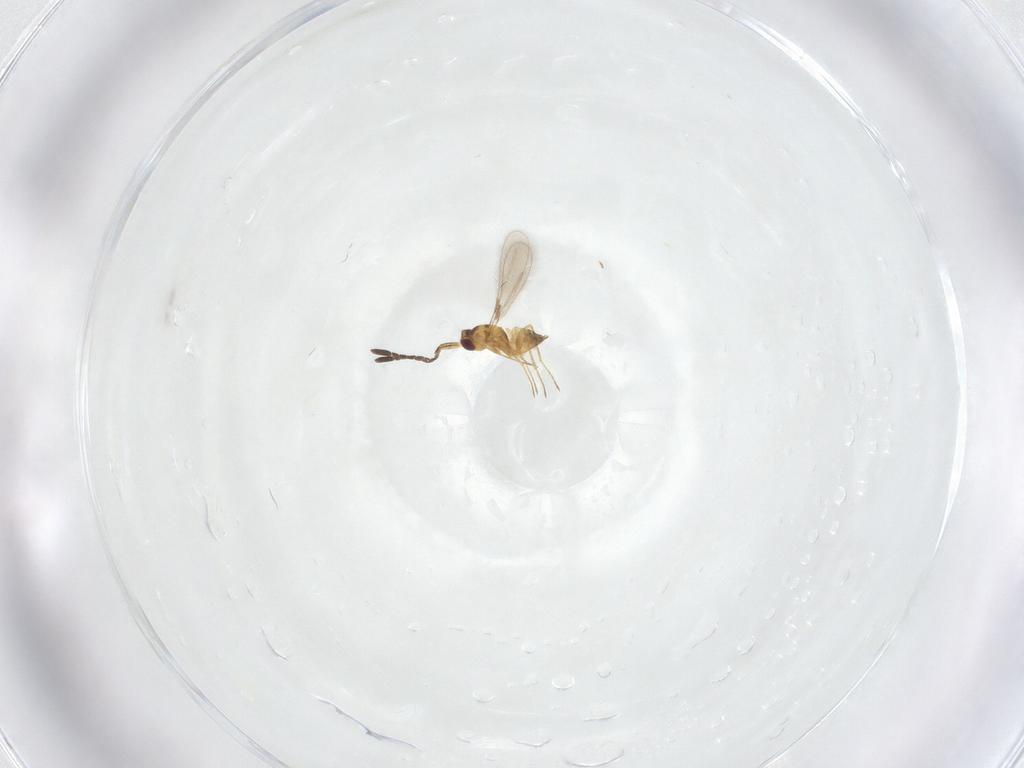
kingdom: Animalia
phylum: Arthropoda
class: Insecta
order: Hymenoptera
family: Mymaridae
